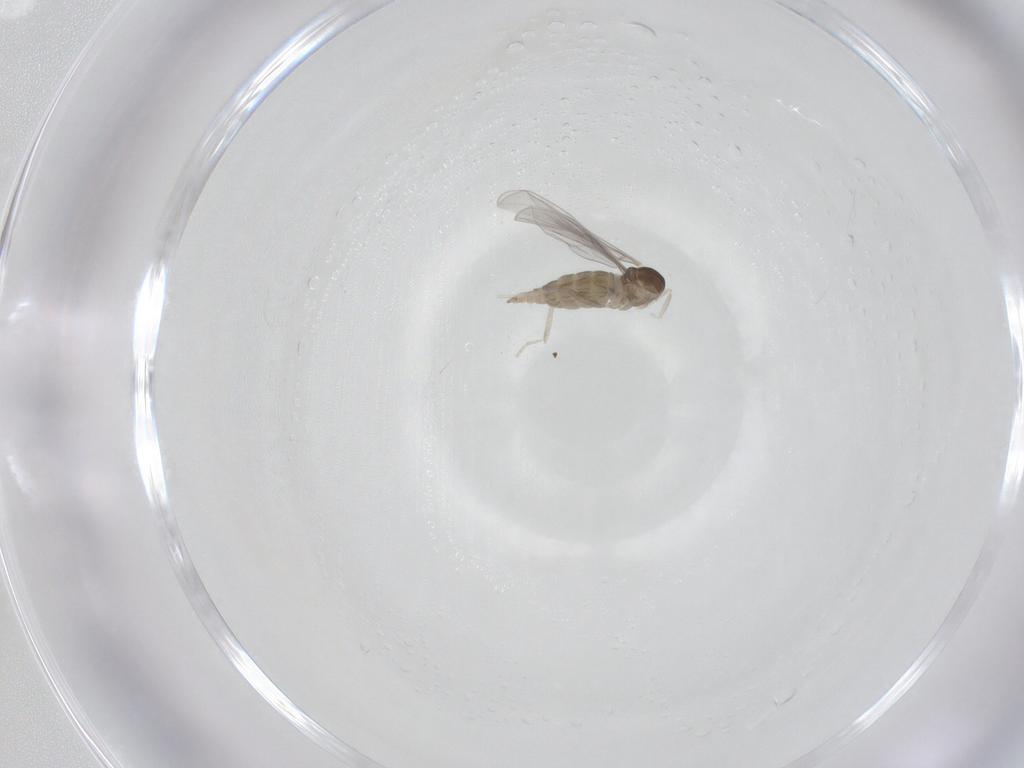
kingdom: Animalia
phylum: Arthropoda
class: Insecta
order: Diptera
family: Cecidomyiidae
